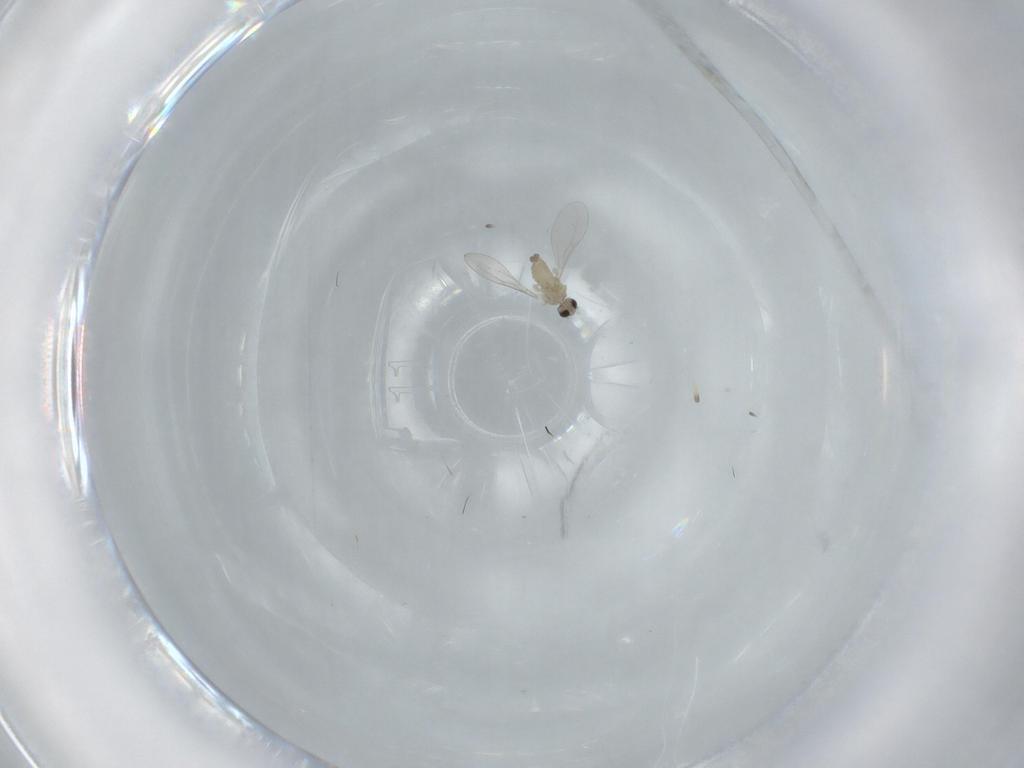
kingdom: Animalia
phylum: Arthropoda
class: Insecta
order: Diptera
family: Cecidomyiidae
